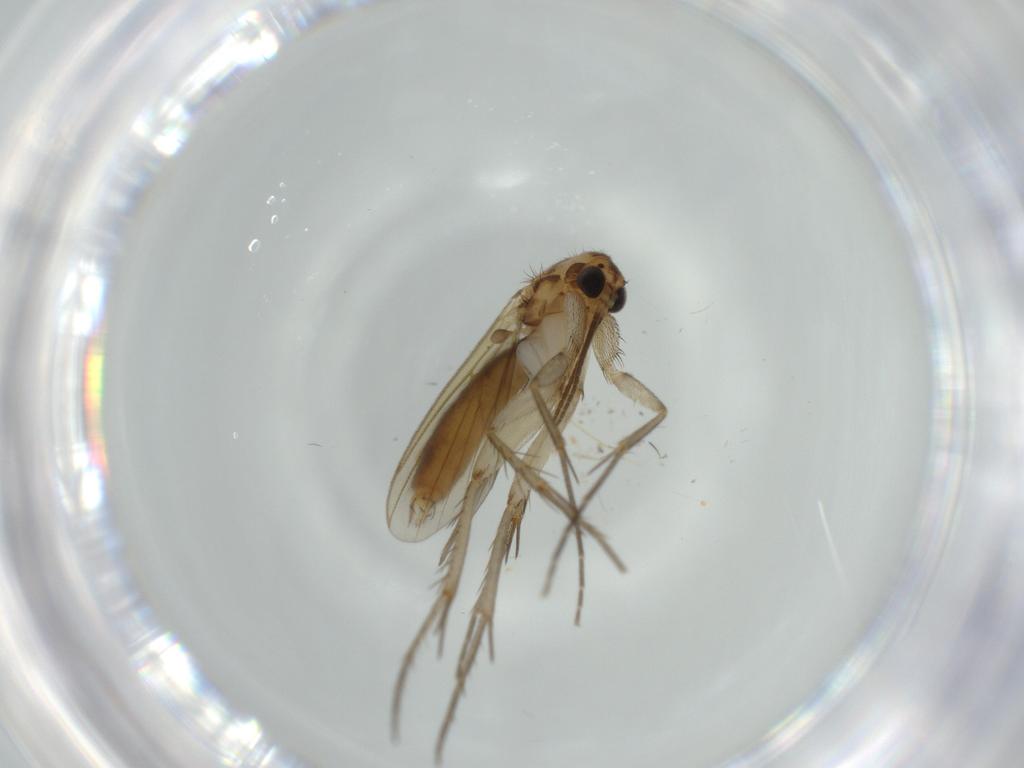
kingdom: Animalia
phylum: Arthropoda
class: Insecta
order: Diptera
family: Mycetophilidae
